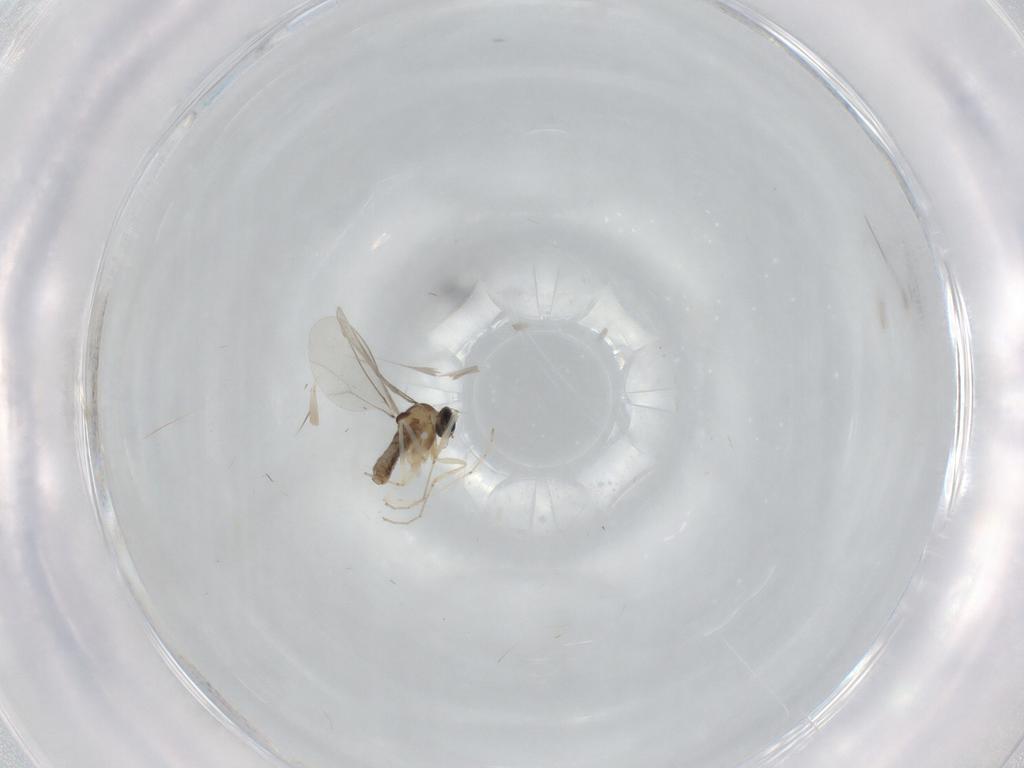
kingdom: Animalia
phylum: Arthropoda
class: Insecta
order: Diptera
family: Cecidomyiidae
